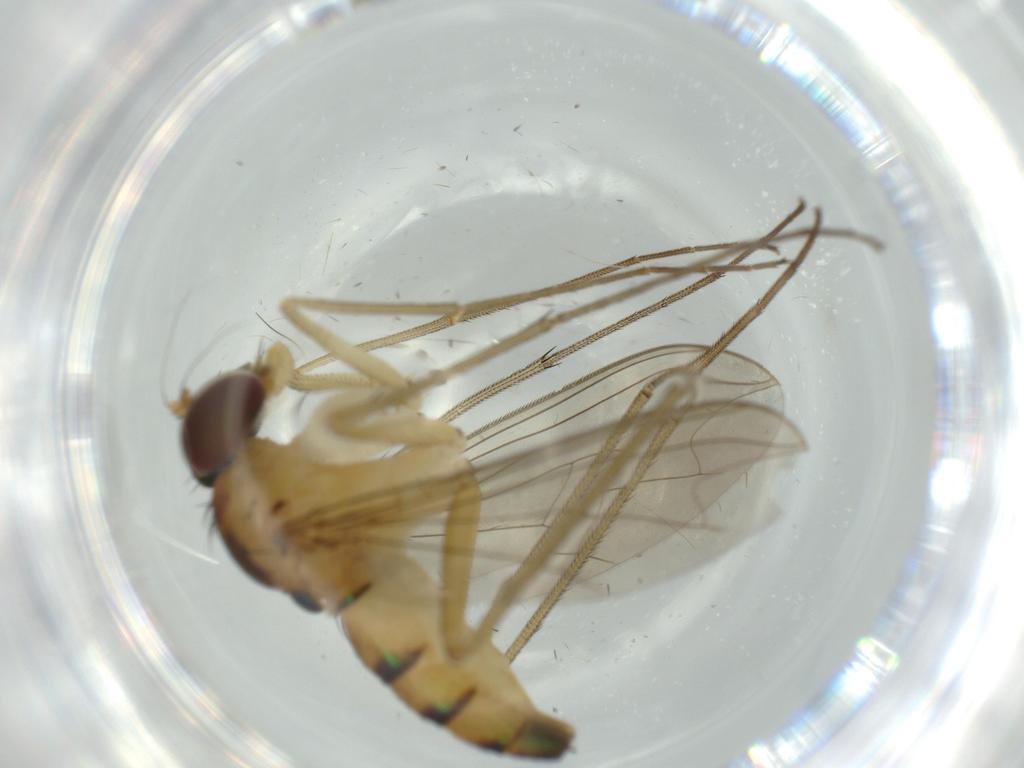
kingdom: Animalia
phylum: Arthropoda
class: Insecta
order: Diptera
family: Dolichopodidae
